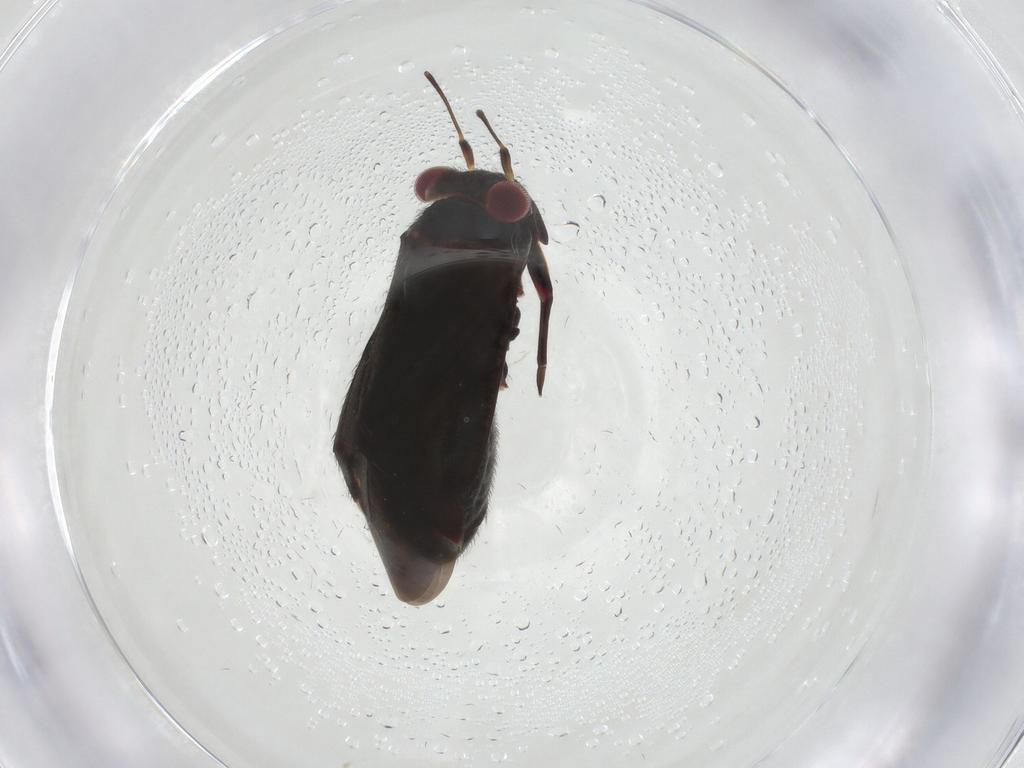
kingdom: Animalia
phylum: Arthropoda
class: Insecta
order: Hemiptera
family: Miridae
